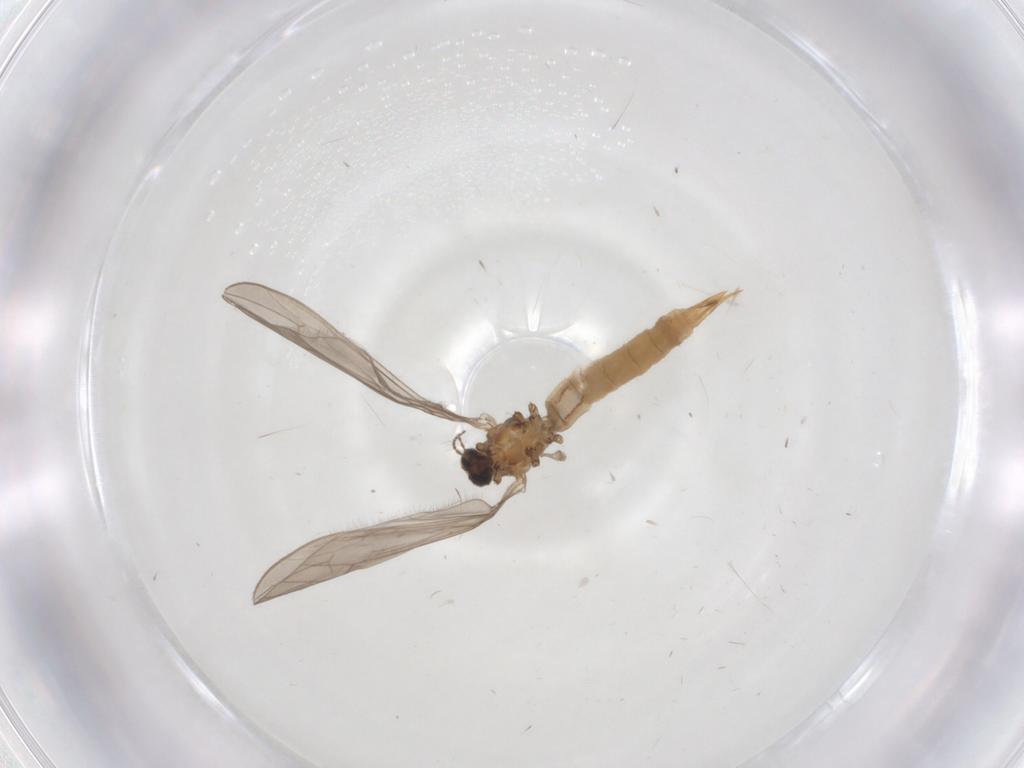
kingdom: Animalia
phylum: Arthropoda
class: Insecta
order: Diptera
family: Limoniidae
